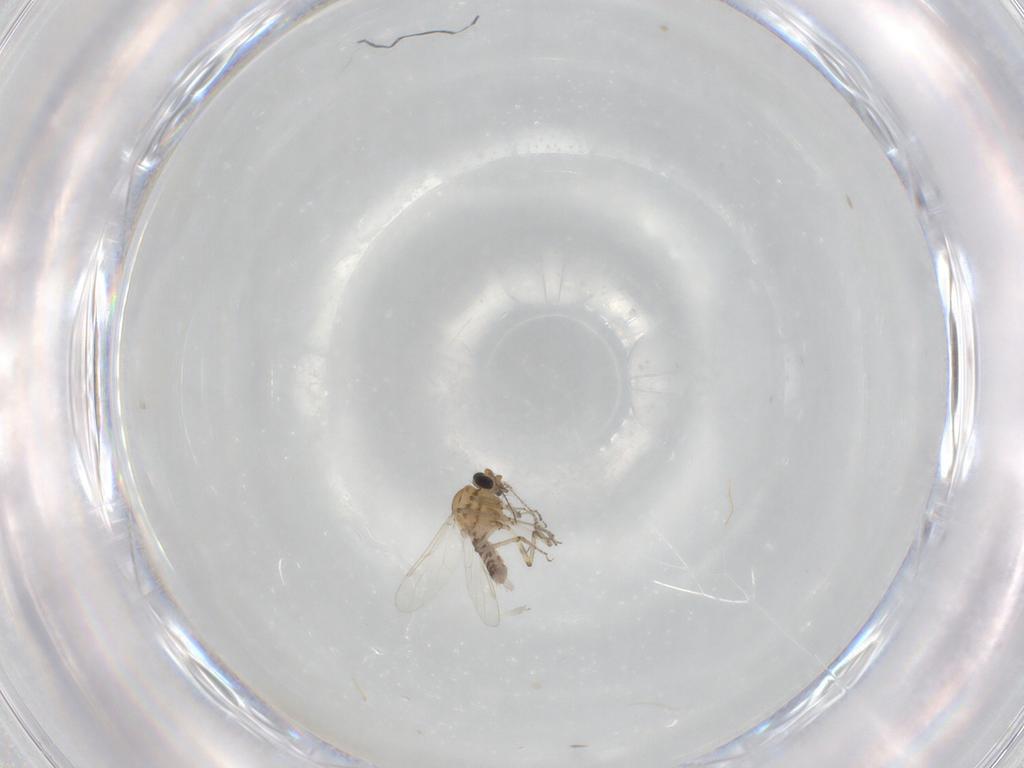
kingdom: Animalia
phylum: Arthropoda
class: Insecta
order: Diptera
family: Ceratopogonidae
